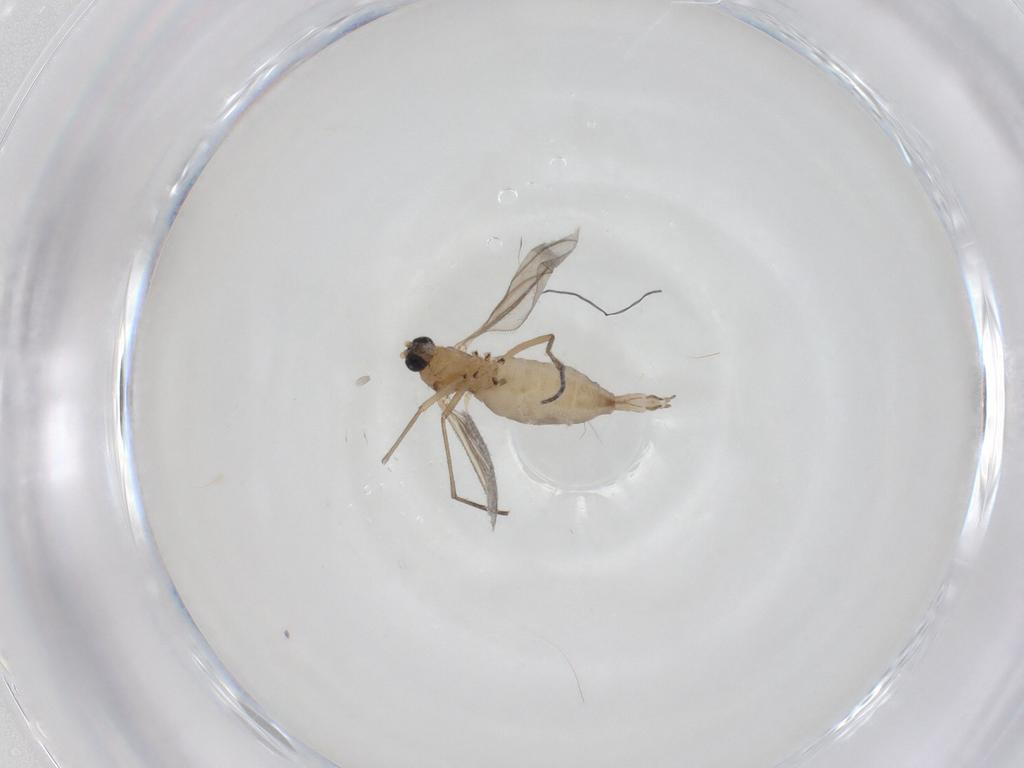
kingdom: Animalia
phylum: Arthropoda
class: Insecta
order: Diptera
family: Sciaridae
